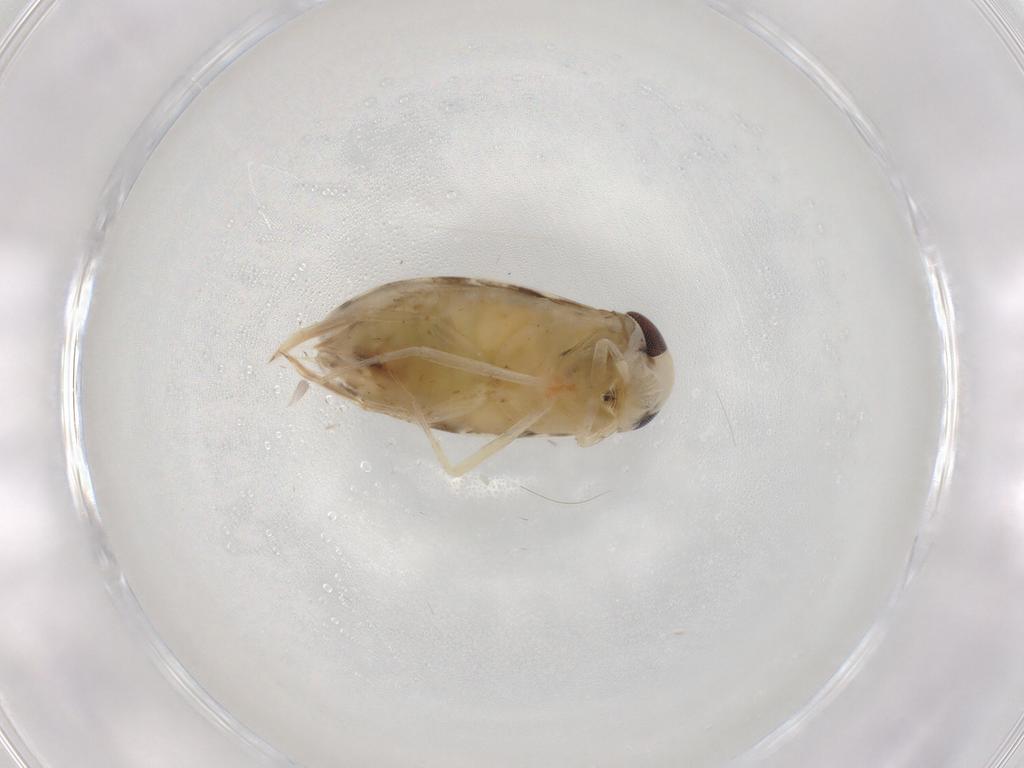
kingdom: Animalia
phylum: Arthropoda
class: Insecta
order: Hemiptera
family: Corixidae
